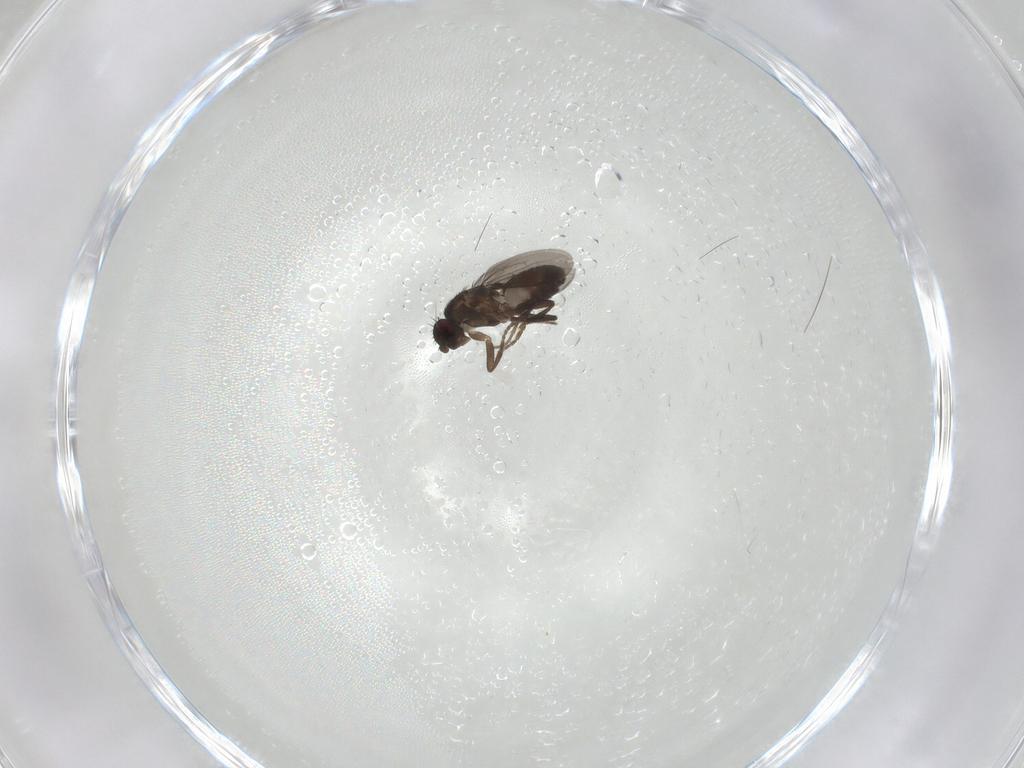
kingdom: Animalia
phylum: Arthropoda
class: Insecta
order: Diptera
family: Sphaeroceridae
